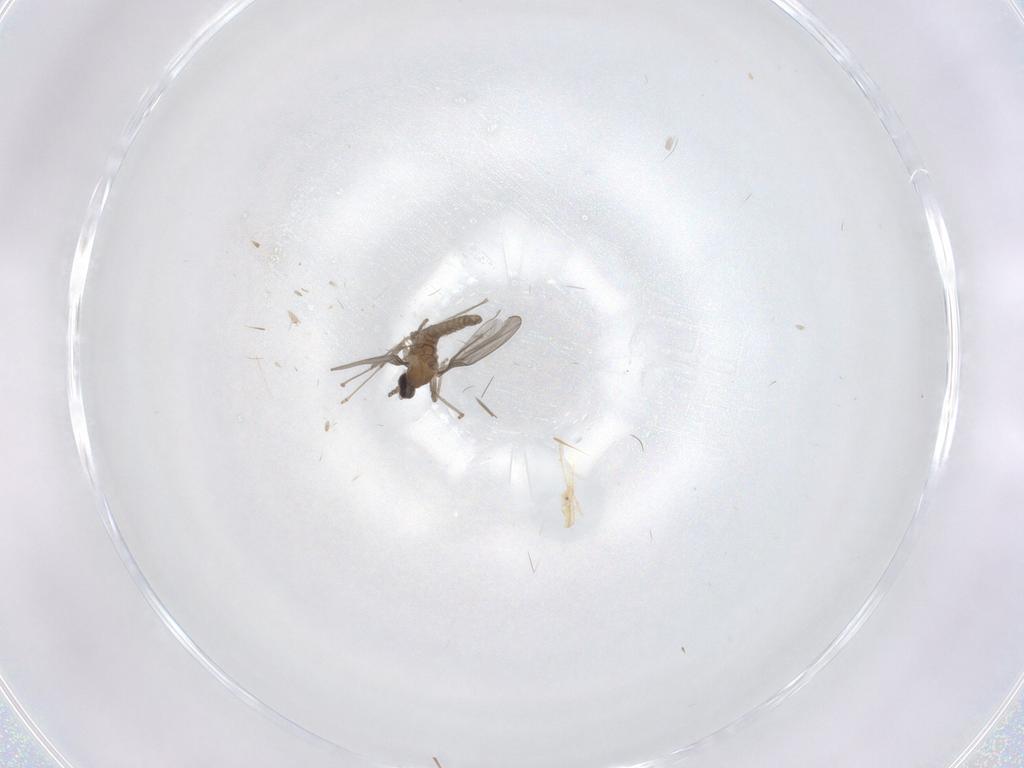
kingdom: Animalia
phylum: Arthropoda
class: Insecta
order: Diptera
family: Cecidomyiidae
